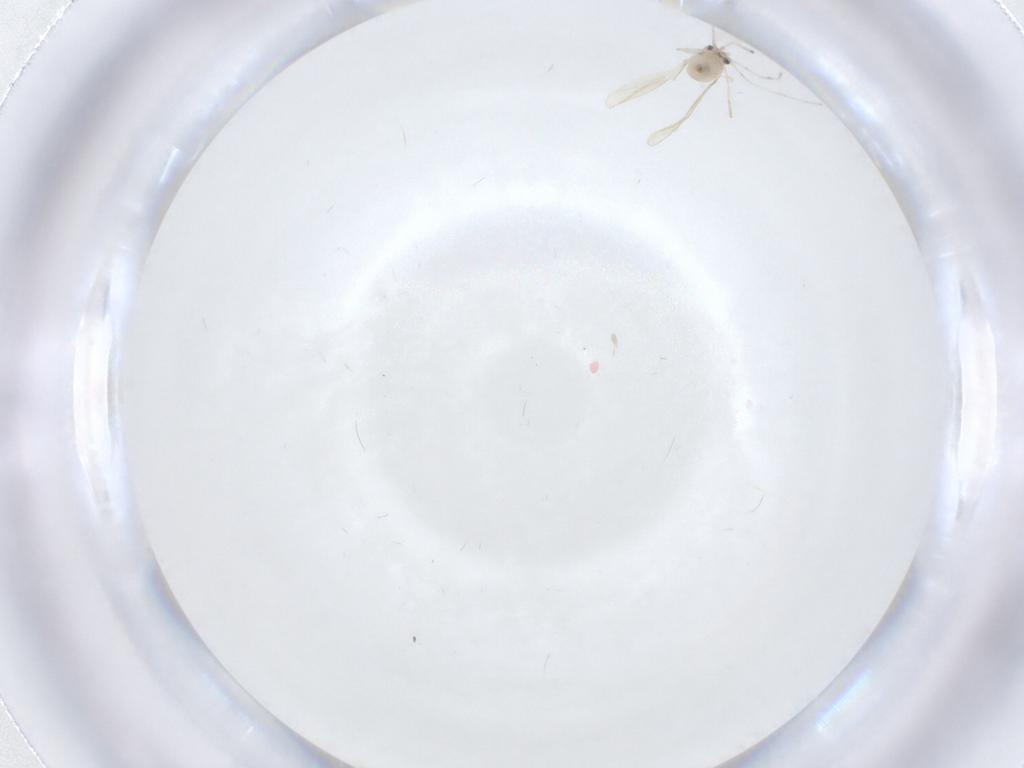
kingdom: Animalia
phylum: Arthropoda
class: Insecta
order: Diptera
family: Cecidomyiidae
